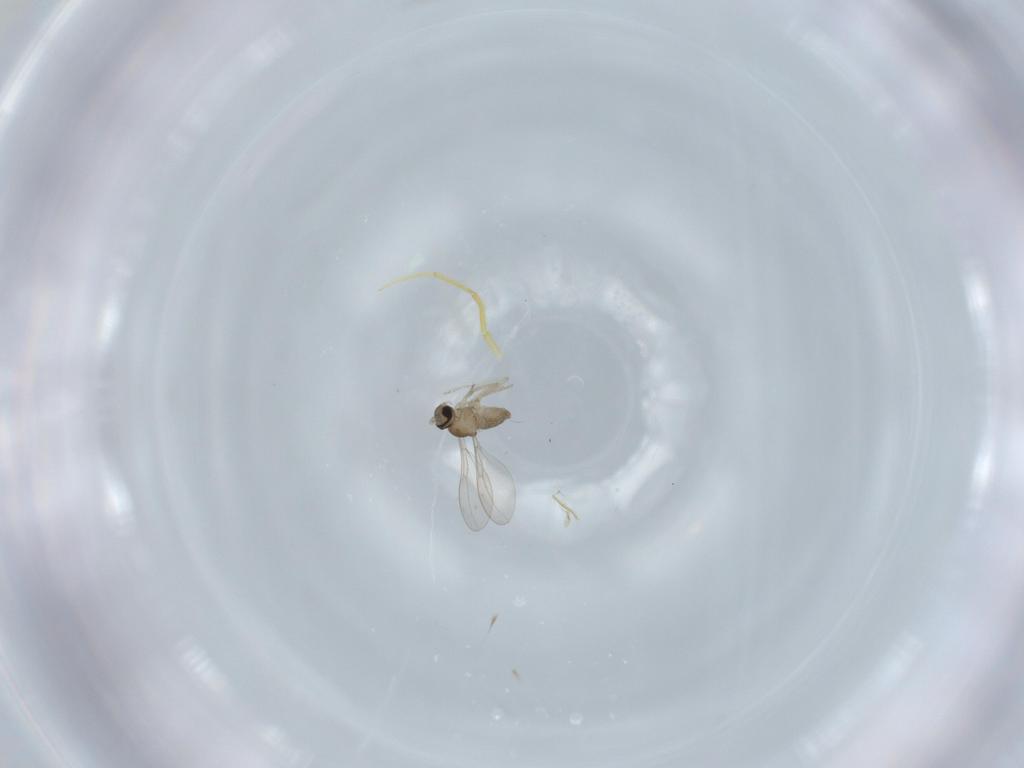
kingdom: Animalia
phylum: Arthropoda
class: Insecta
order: Diptera
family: Cecidomyiidae
